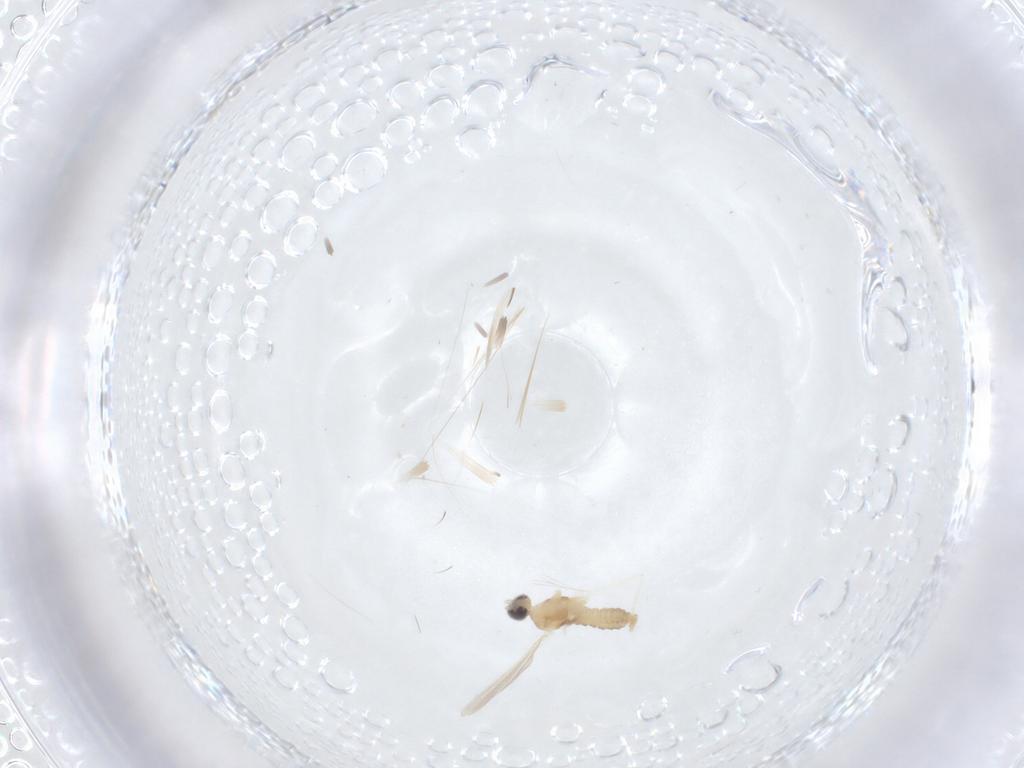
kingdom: Animalia
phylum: Arthropoda
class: Insecta
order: Diptera
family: Cecidomyiidae
